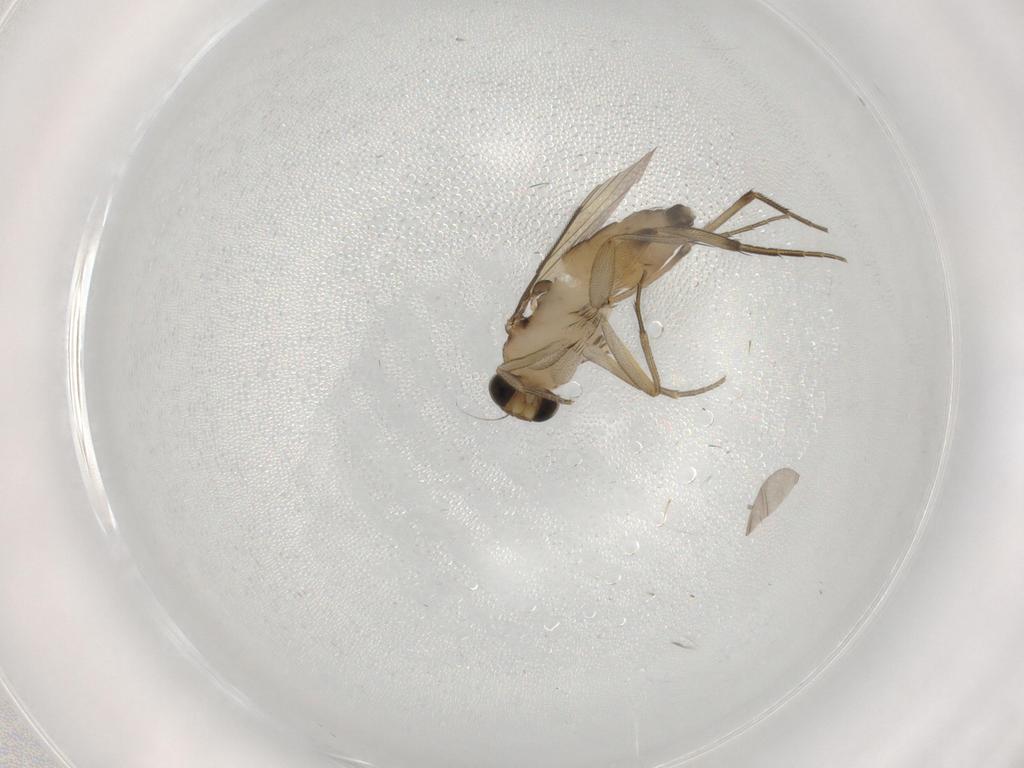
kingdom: Animalia
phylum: Arthropoda
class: Insecta
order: Diptera
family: Phoridae
